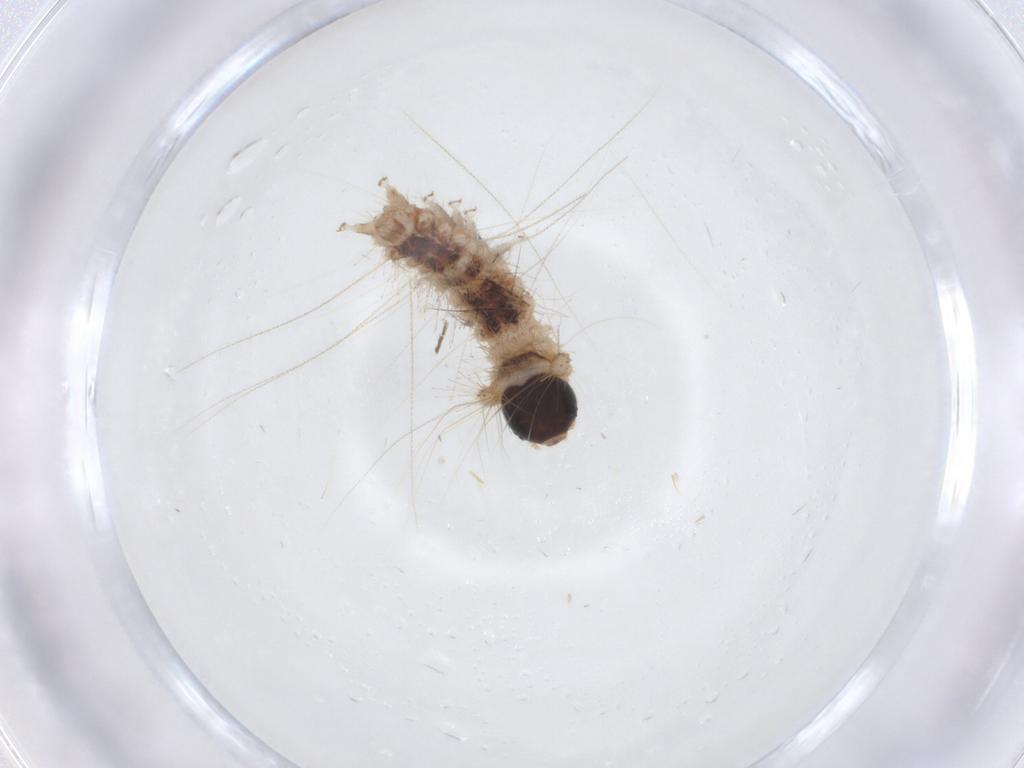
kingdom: Animalia
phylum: Arthropoda
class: Insecta
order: Lepidoptera
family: Erebidae
